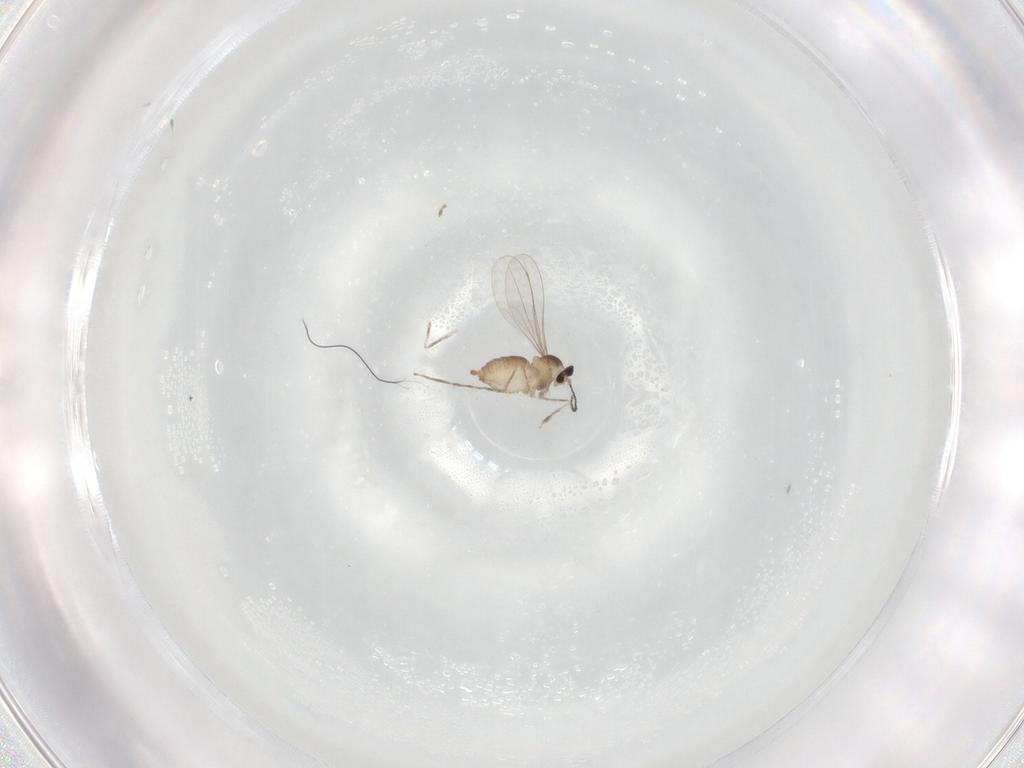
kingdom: Animalia
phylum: Arthropoda
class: Insecta
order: Diptera
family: Cecidomyiidae
